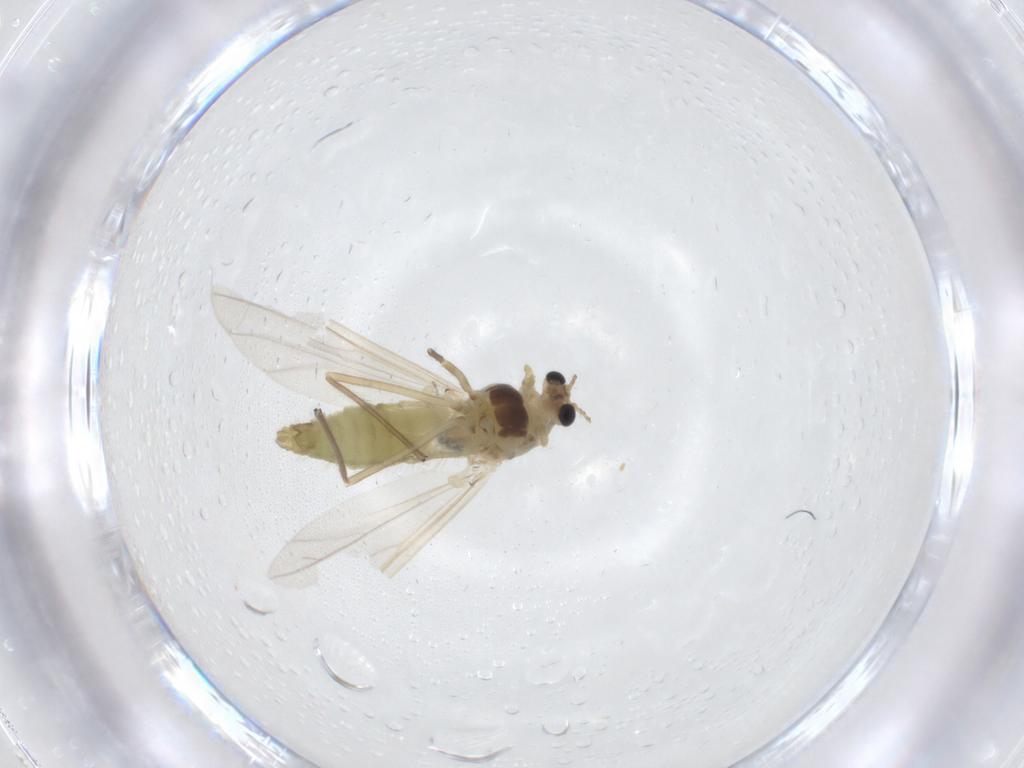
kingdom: Animalia
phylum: Arthropoda
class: Insecta
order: Diptera
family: Chironomidae
